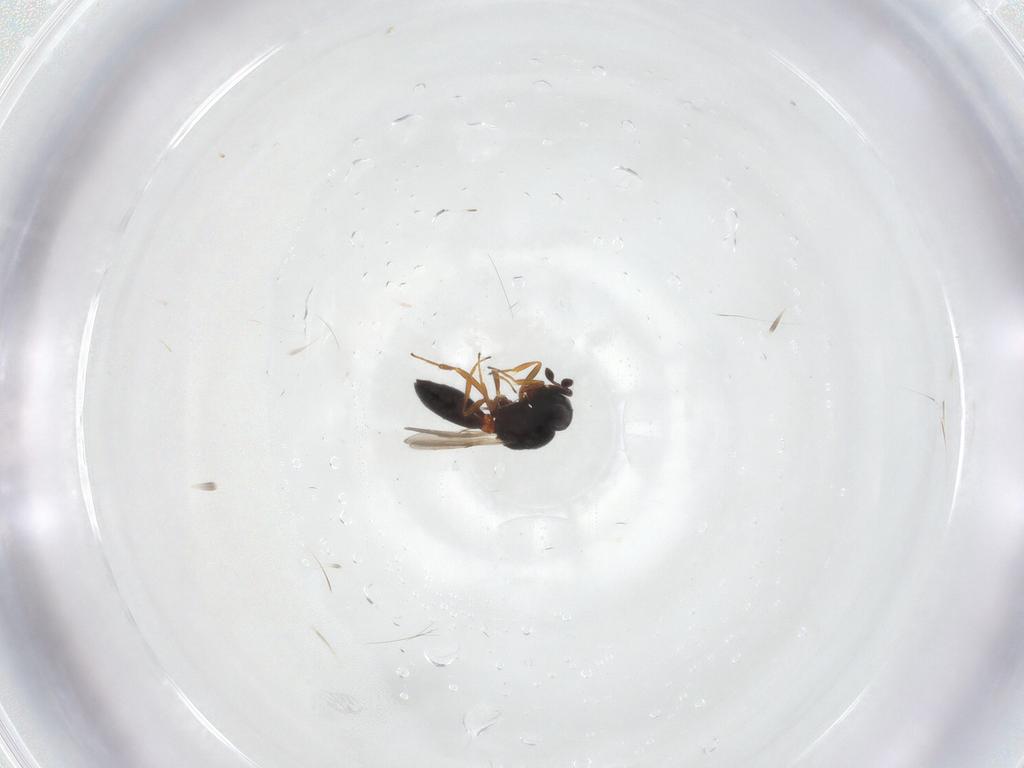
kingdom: Animalia
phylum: Arthropoda
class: Insecta
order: Hymenoptera
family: Scelionidae
